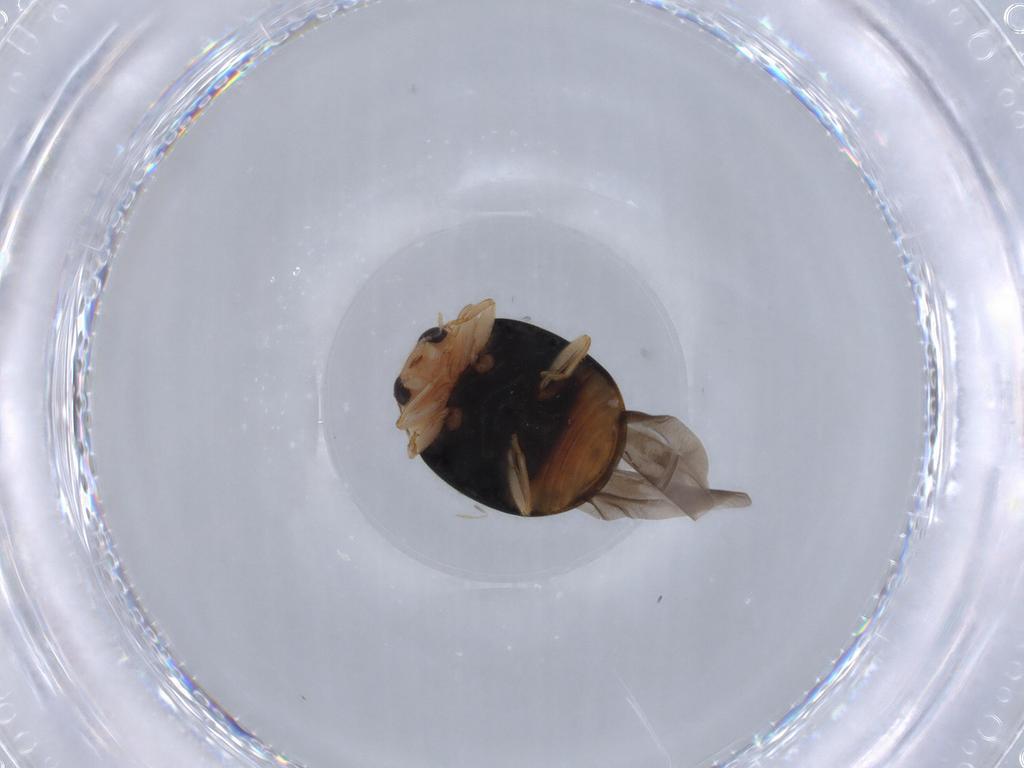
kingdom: Animalia
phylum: Arthropoda
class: Insecta
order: Coleoptera
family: Coccinellidae
